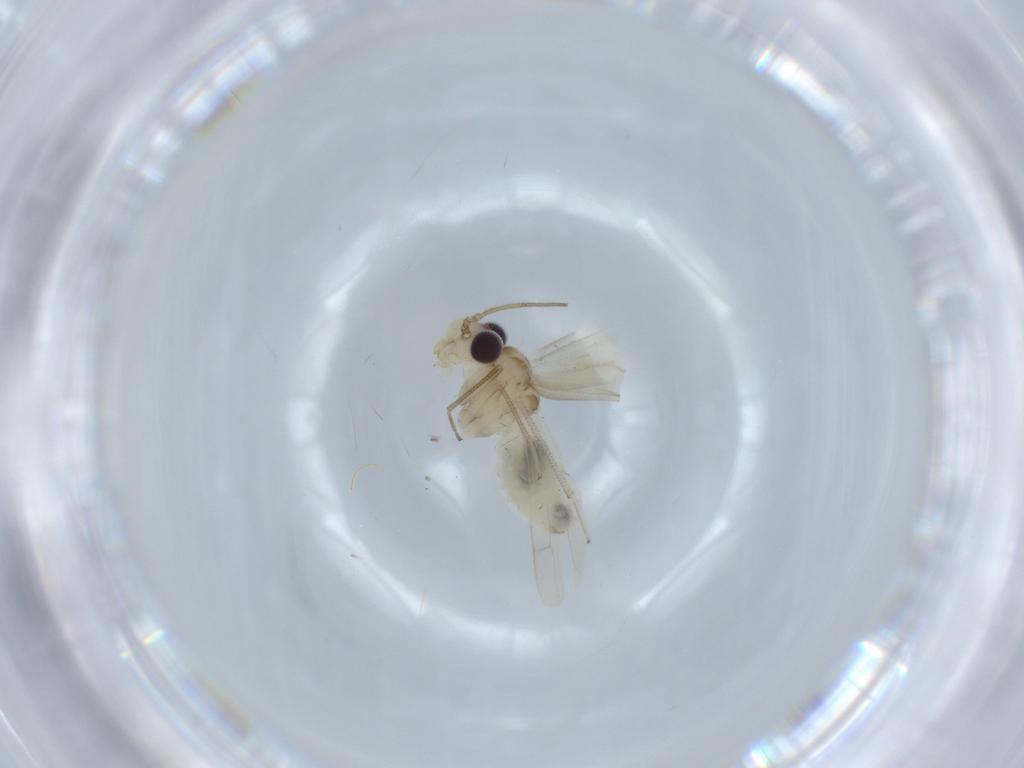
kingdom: Animalia
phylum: Arthropoda
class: Insecta
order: Psocodea
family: Caeciliusidae
